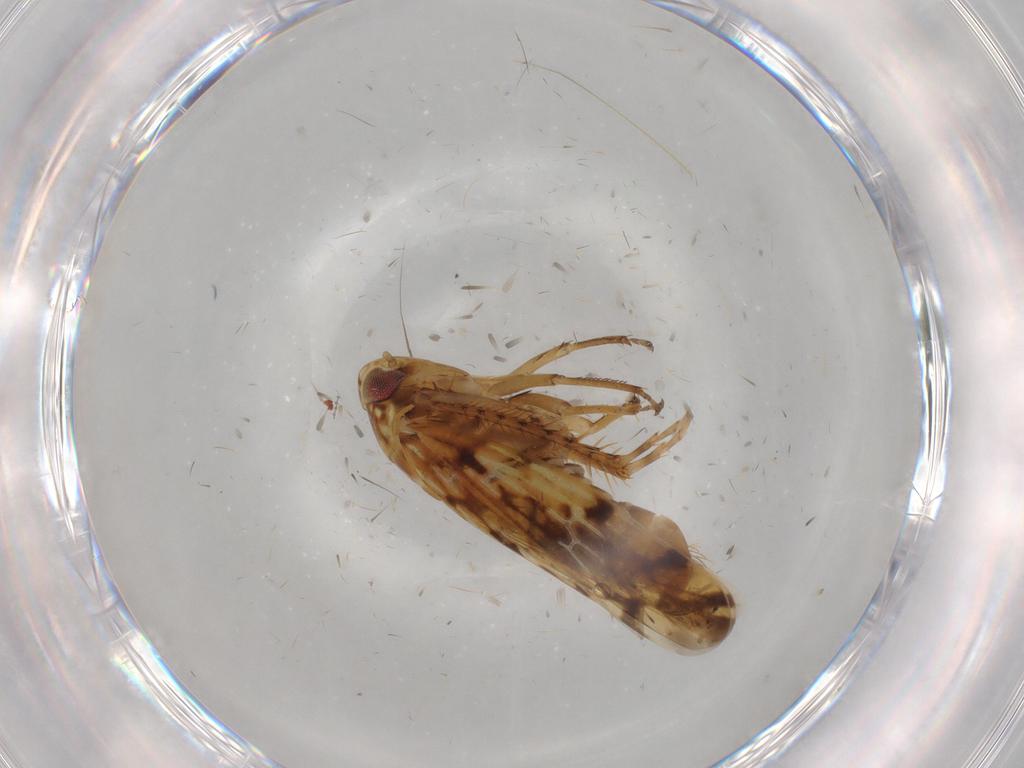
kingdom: Animalia
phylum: Arthropoda
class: Insecta
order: Hemiptera
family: Cicadellidae
